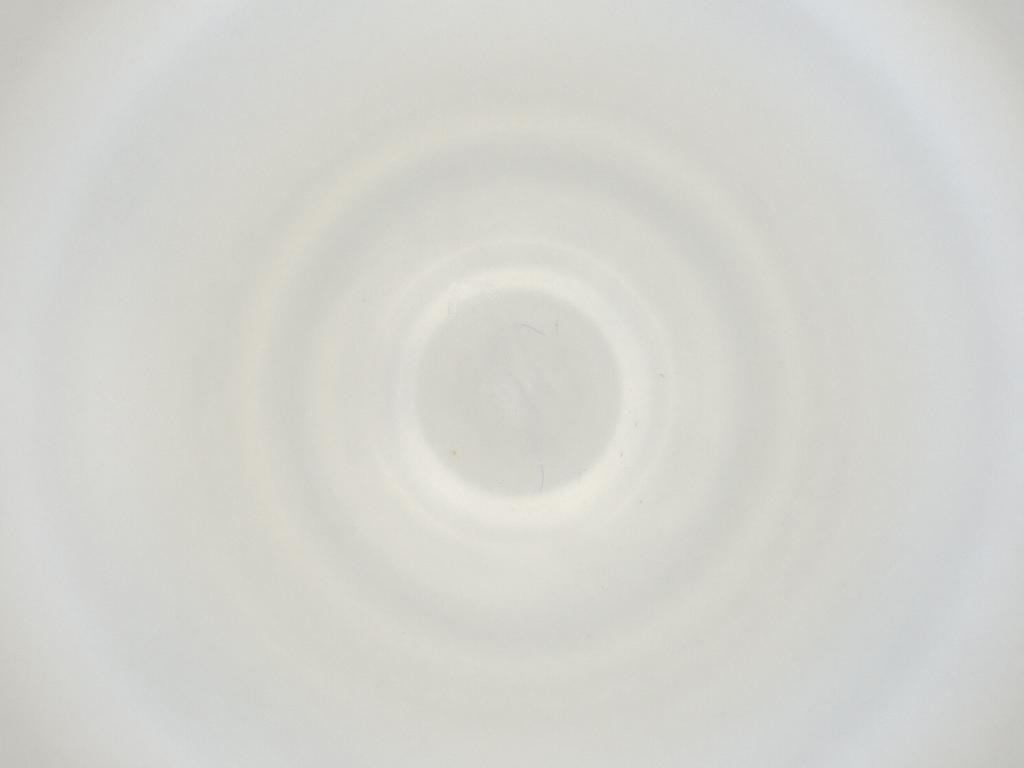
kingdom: Animalia
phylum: Arthropoda
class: Insecta
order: Diptera
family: Cecidomyiidae
